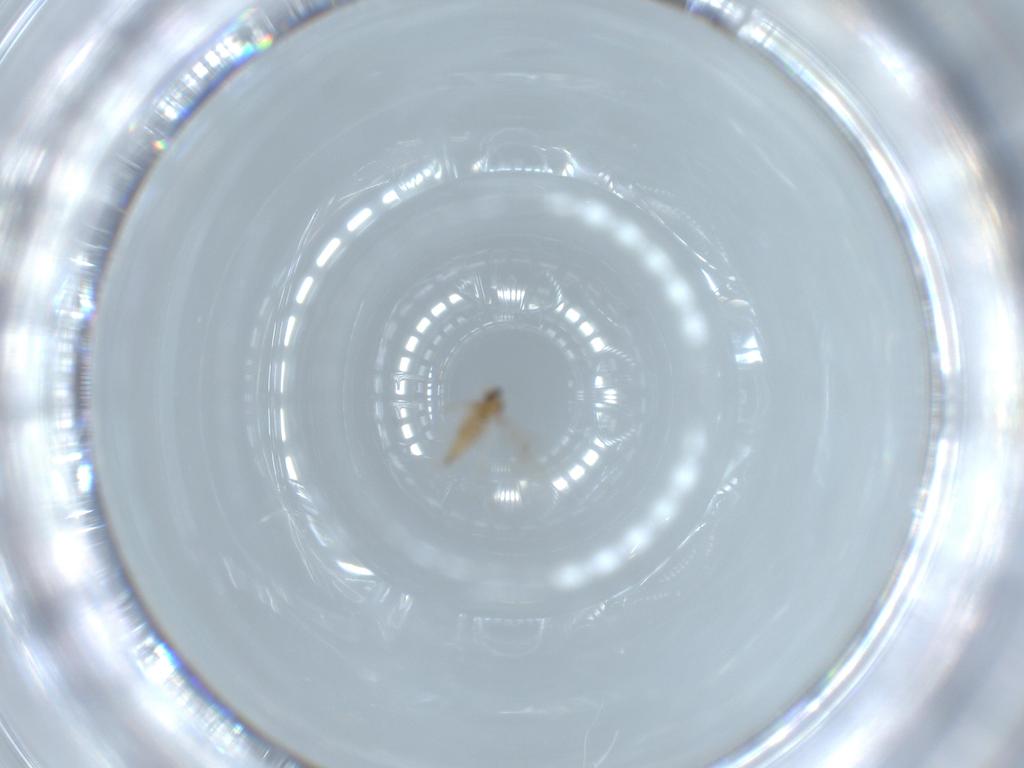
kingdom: Animalia
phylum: Arthropoda
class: Insecta
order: Diptera
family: Cecidomyiidae
